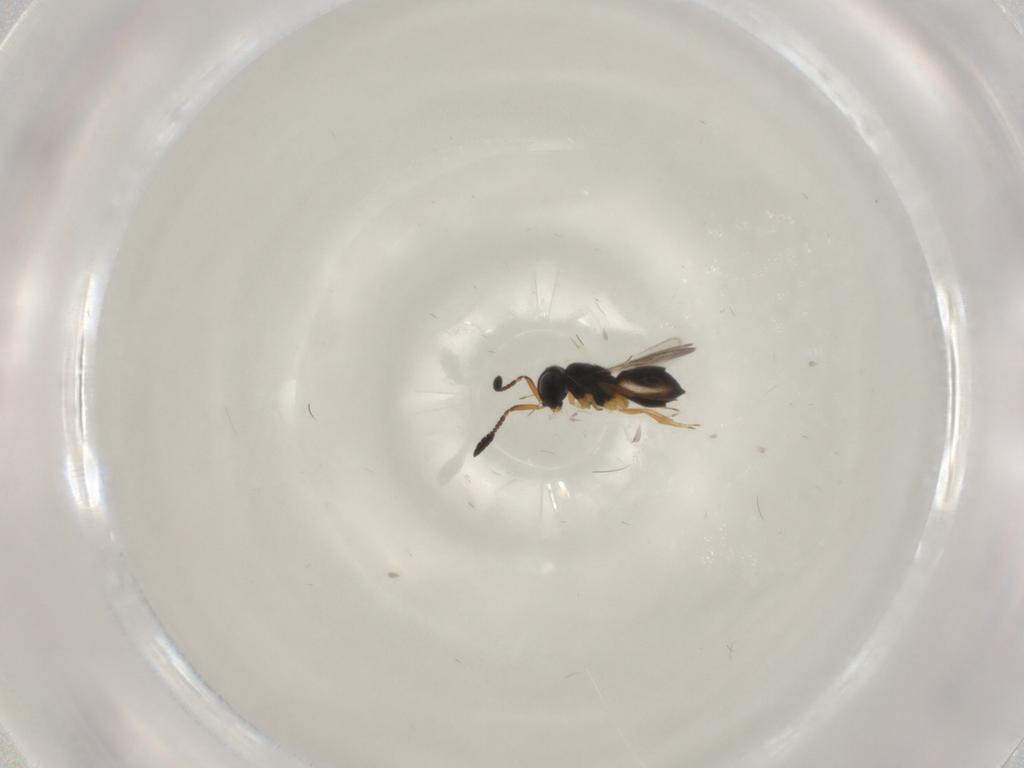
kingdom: Animalia
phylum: Arthropoda
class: Insecta
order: Hymenoptera
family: Scelionidae
